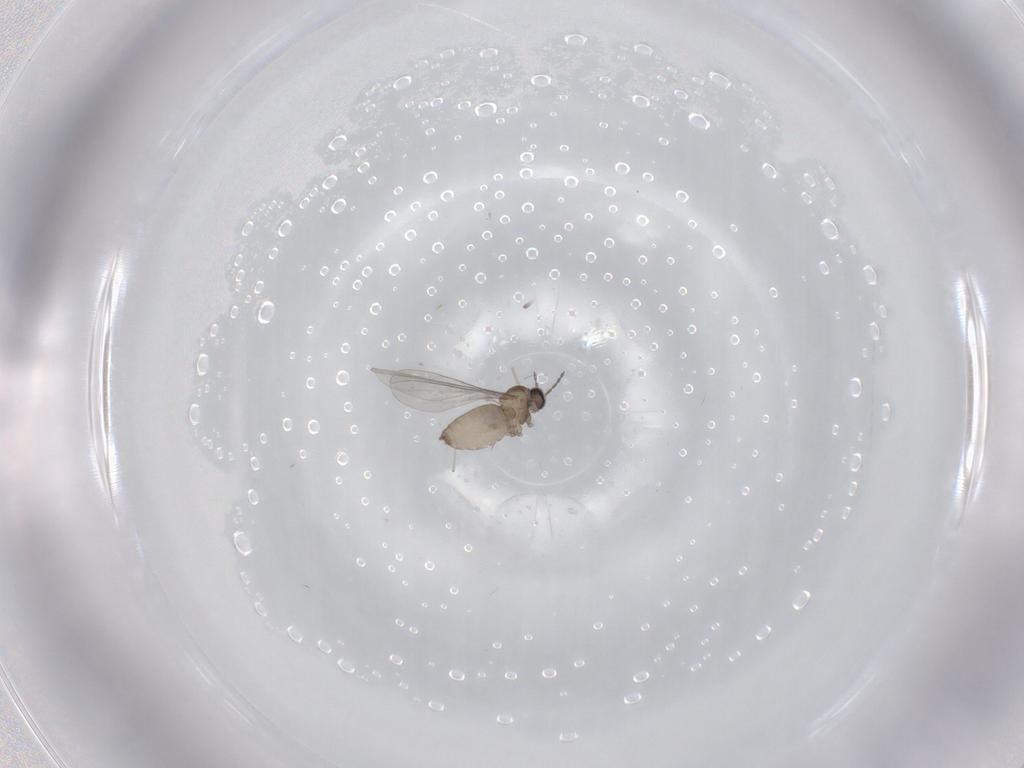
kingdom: Animalia
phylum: Arthropoda
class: Insecta
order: Diptera
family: Cecidomyiidae
